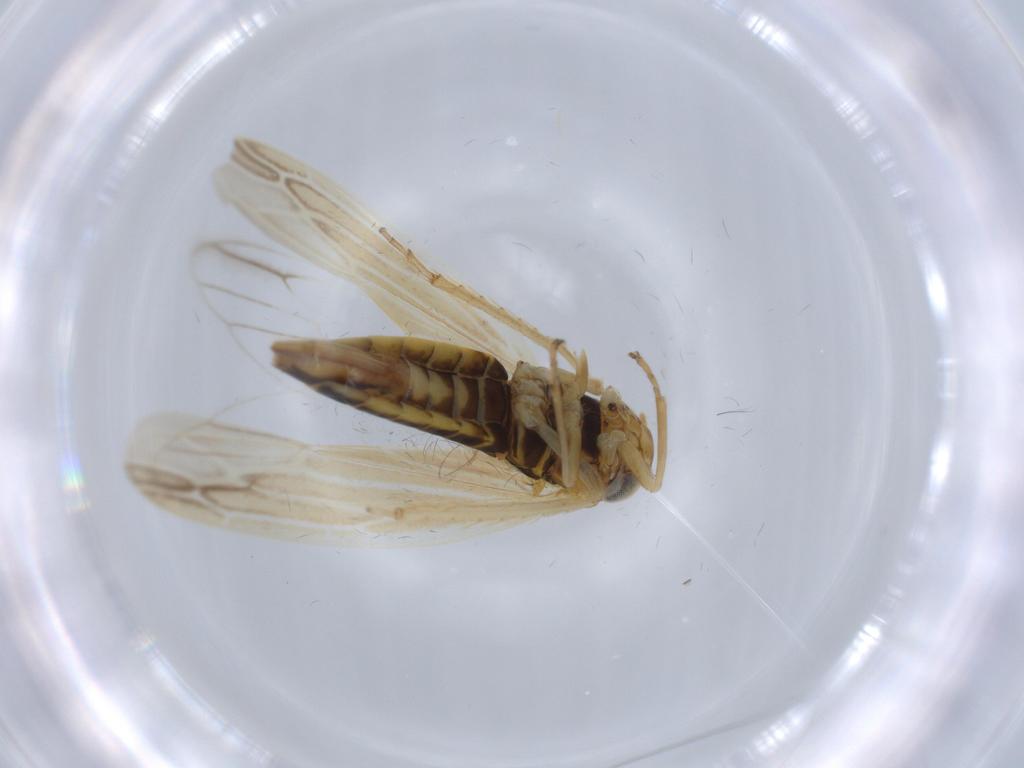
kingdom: Animalia
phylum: Arthropoda
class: Insecta
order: Hemiptera
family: Cicadellidae
